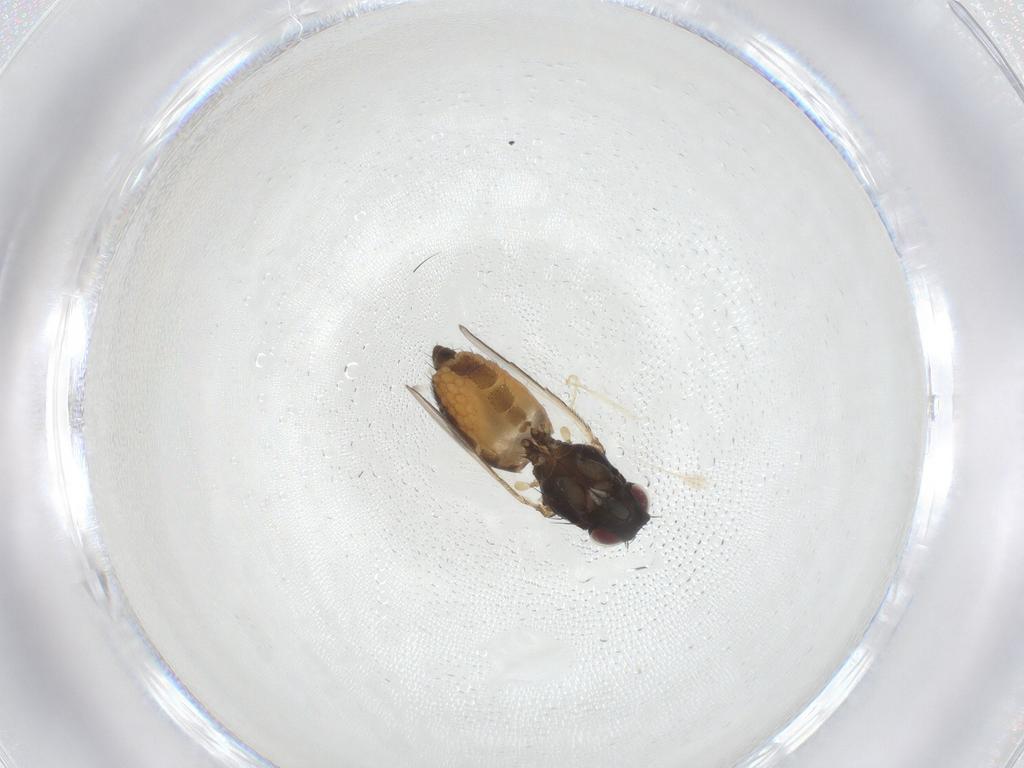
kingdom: Animalia
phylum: Arthropoda
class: Insecta
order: Diptera
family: Milichiidae
